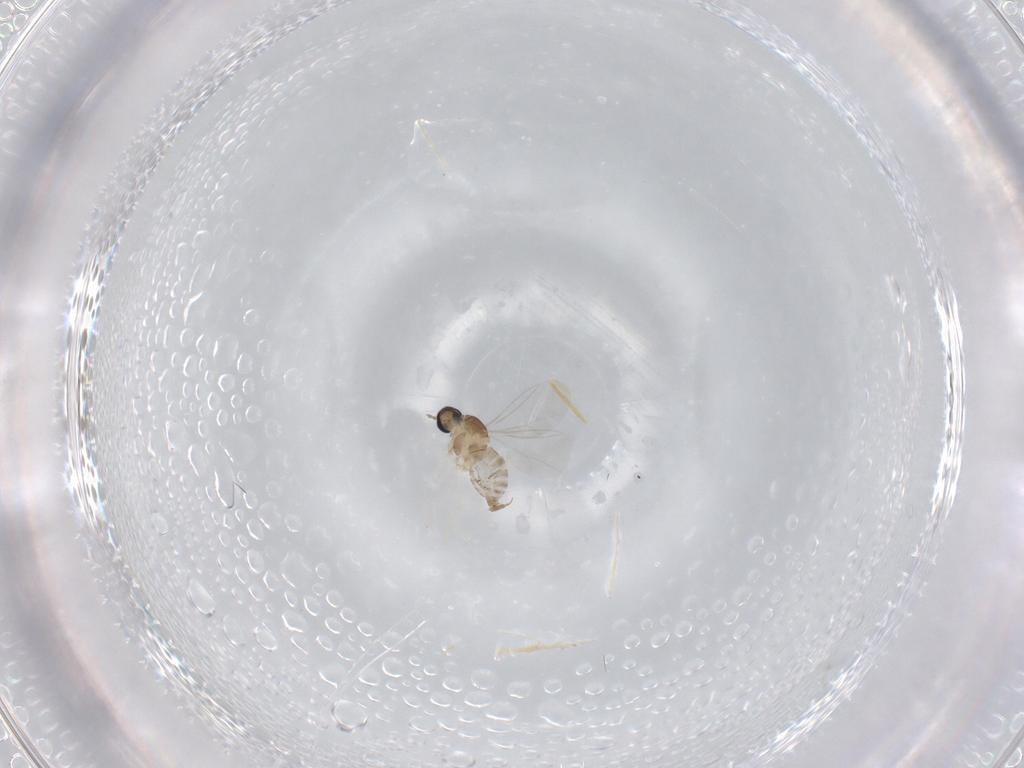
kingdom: Animalia
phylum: Arthropoda
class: Insecta
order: Diptera
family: Cecidomyiidae
